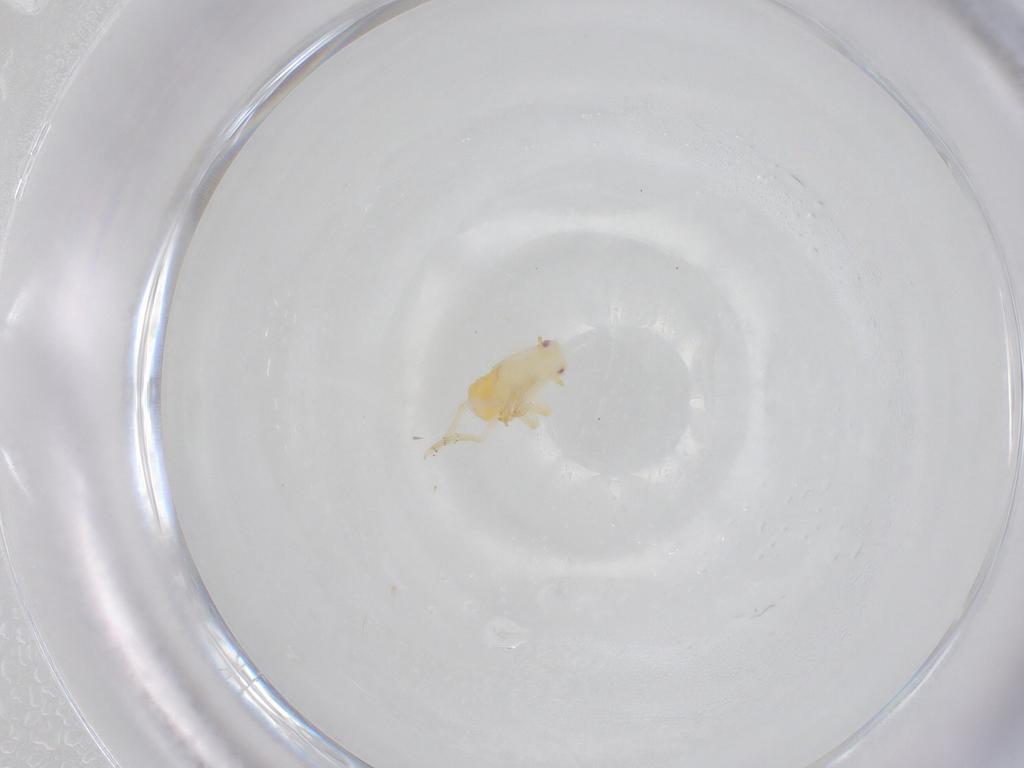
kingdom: Animalia
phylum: Arthropoda
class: Insecta
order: Hemiptera
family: Flatidae
